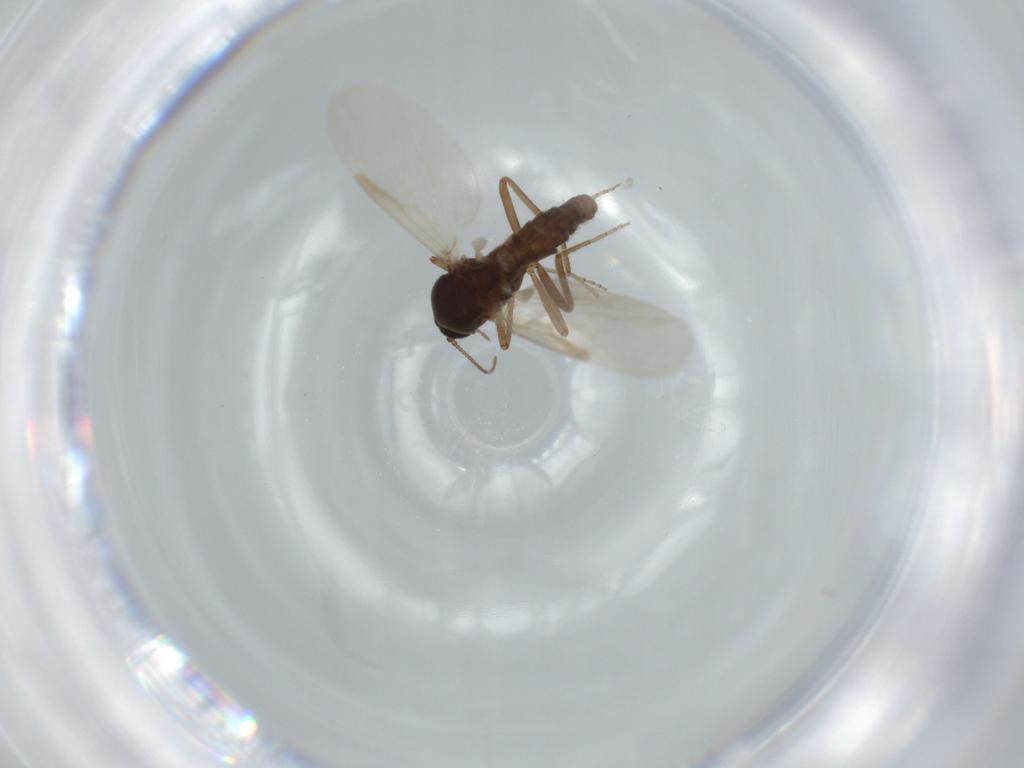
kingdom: Animalia
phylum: Arthropoda
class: Insecta
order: Diptera
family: Ceratopogonidae
